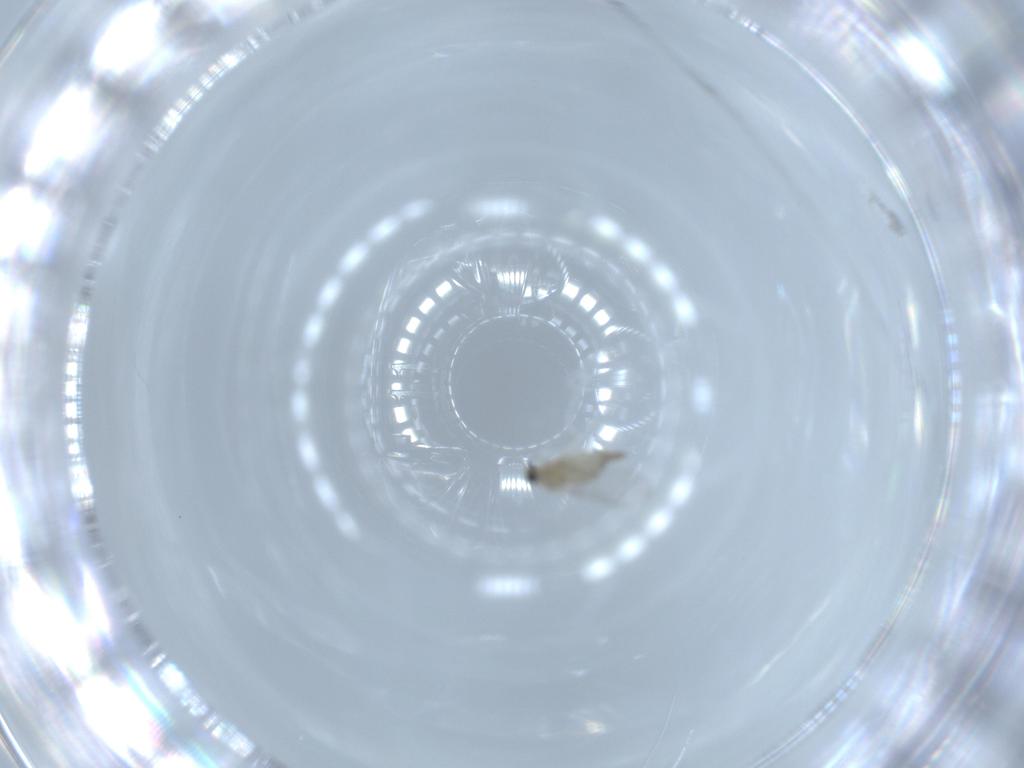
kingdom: Animalia
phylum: Arthropoda
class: Insecta
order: Diptera
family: Cecidomyiidae
